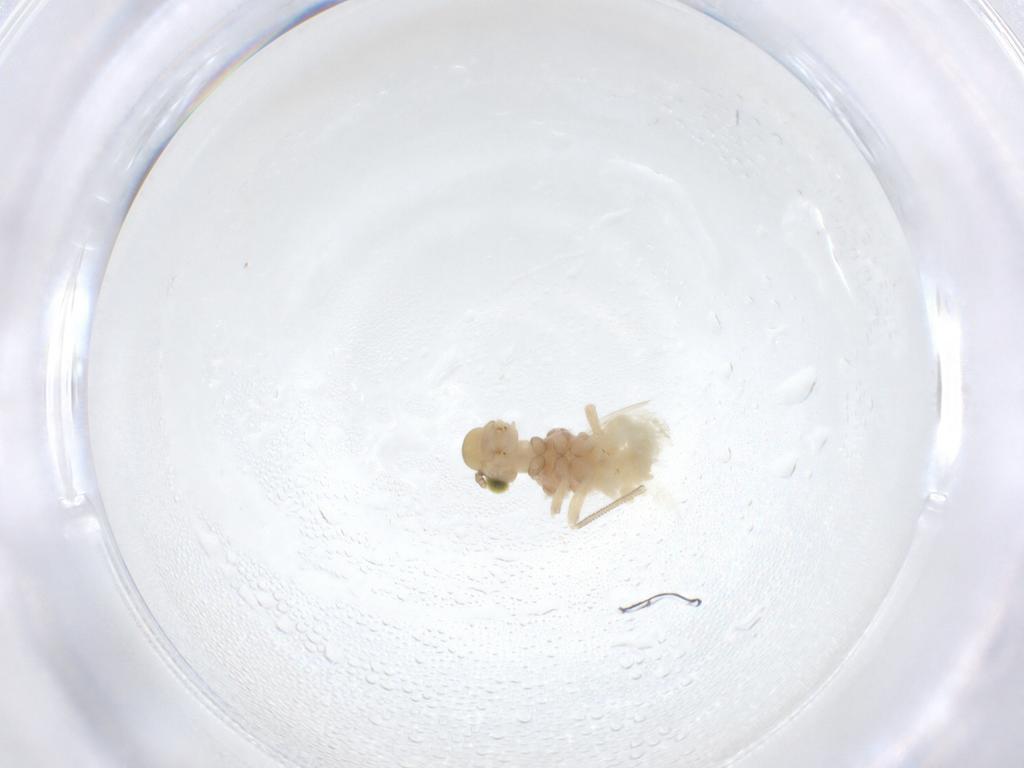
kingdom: Animalia
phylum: Arthropoda
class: Insecta
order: Psocodea
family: Caeciliusidae
